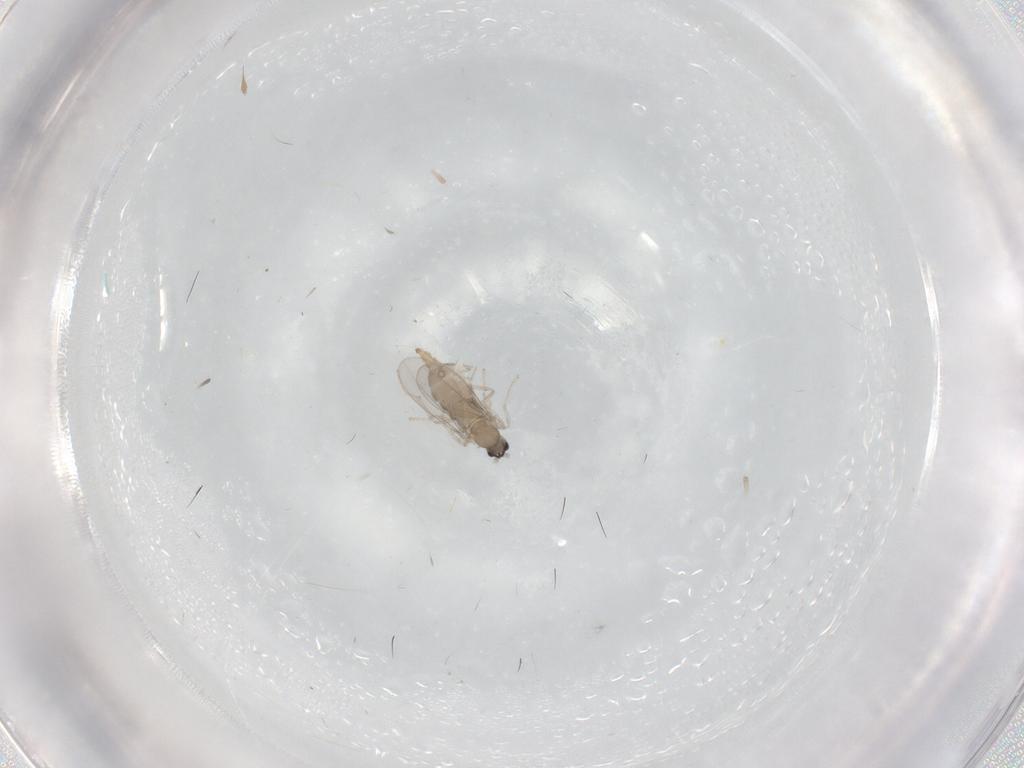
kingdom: Animalia
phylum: Arthropoda
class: Insecta
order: Diptera
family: Cecidomyiidae
